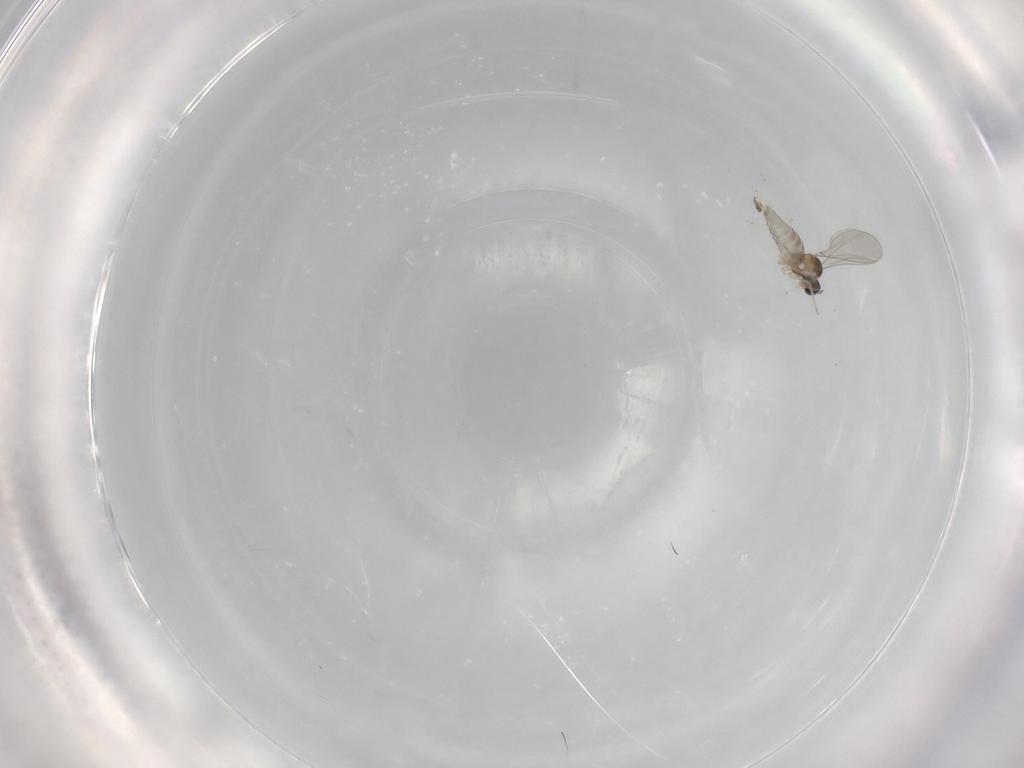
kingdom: Animalia
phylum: Arthropoda
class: Insecta
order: Diptera
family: Cecidomyiidae
